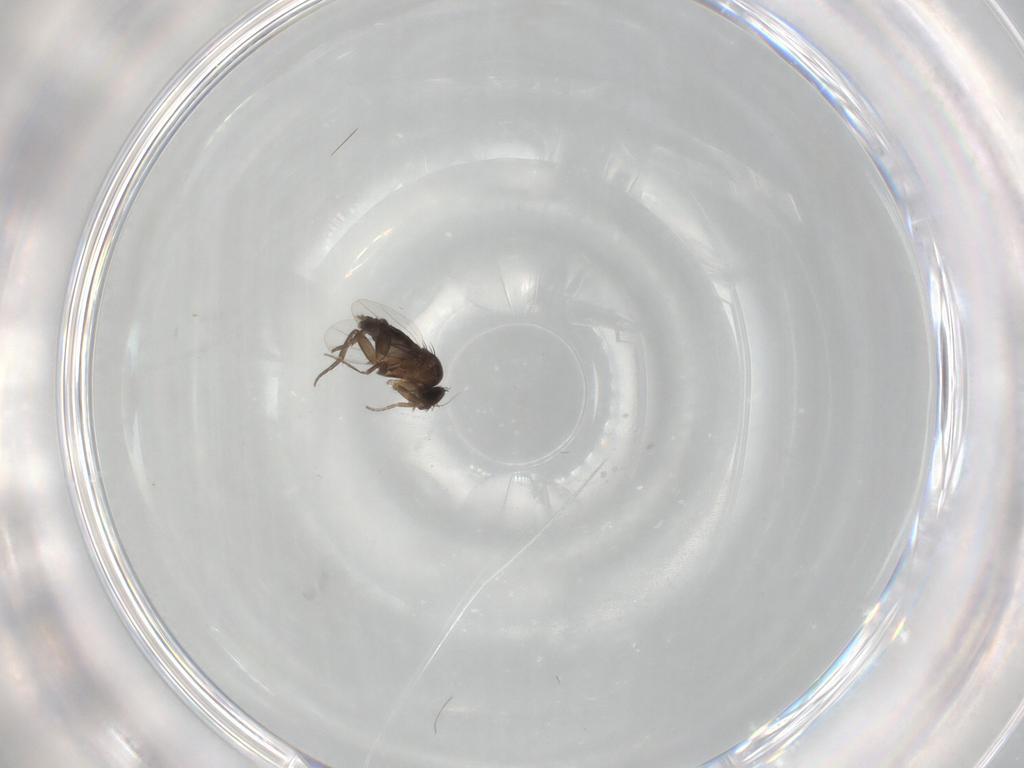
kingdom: Animalia
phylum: Arthropoda
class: Insecta
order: Diptera
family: Phoridae
